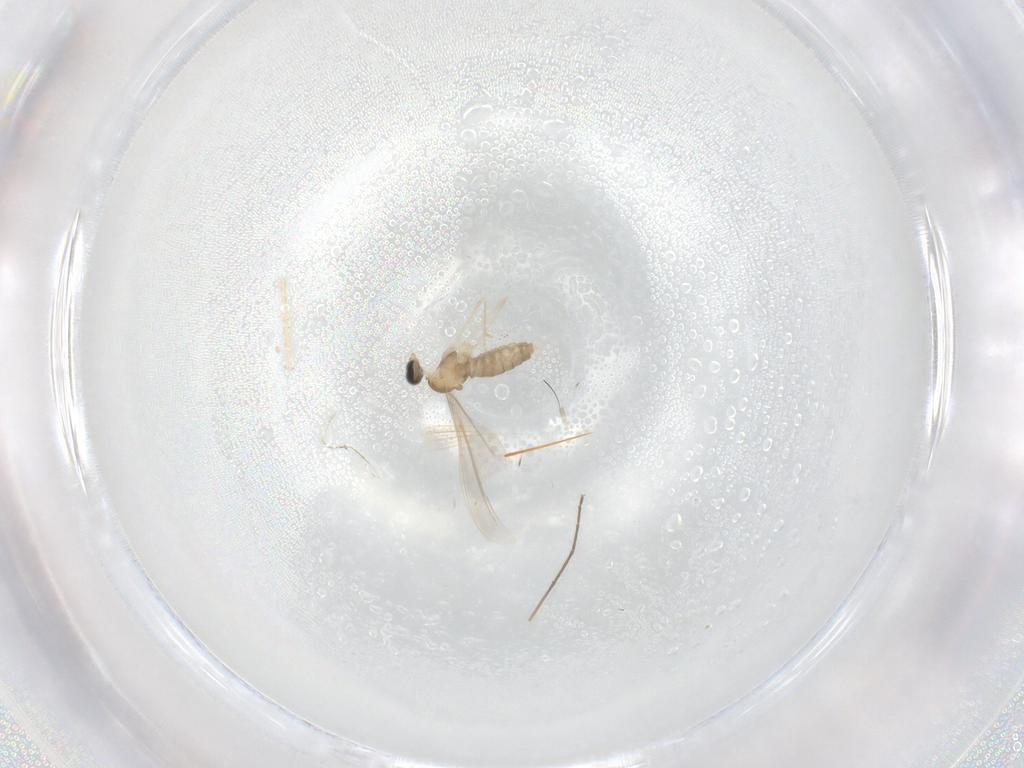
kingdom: Animalia
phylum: Arthropoda
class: Insecta
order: Diptera
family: Cecidomyiidae
